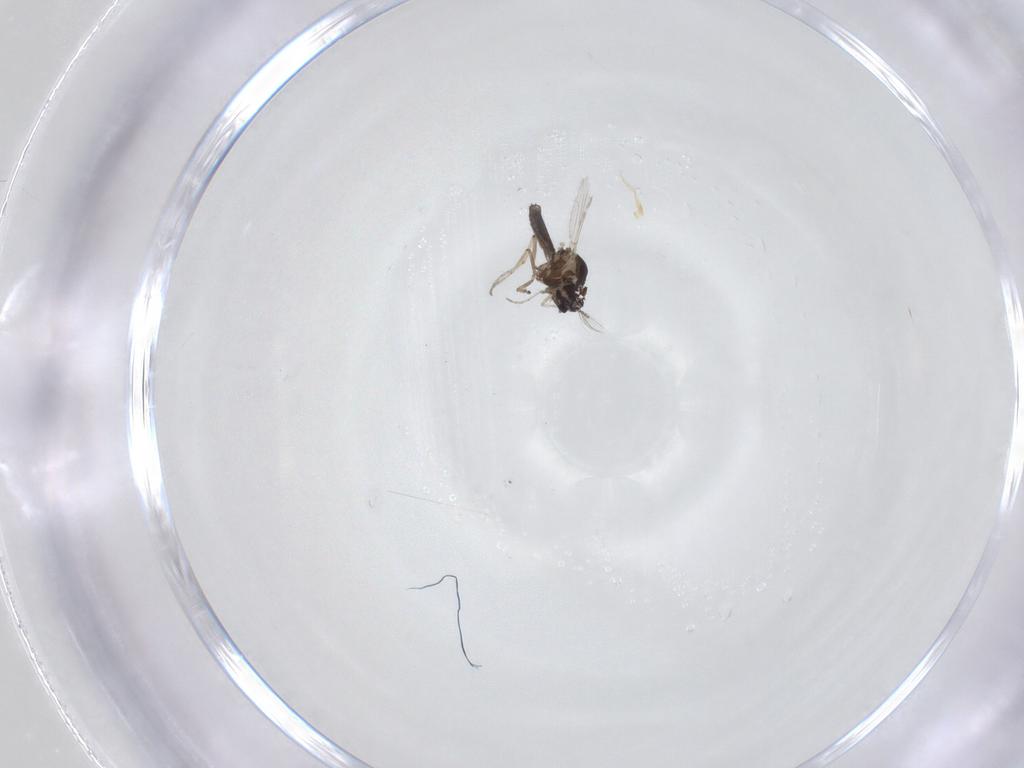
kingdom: Animalia
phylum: Arthropoda
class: Insecta
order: Diptera
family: Ceratopogonidae
